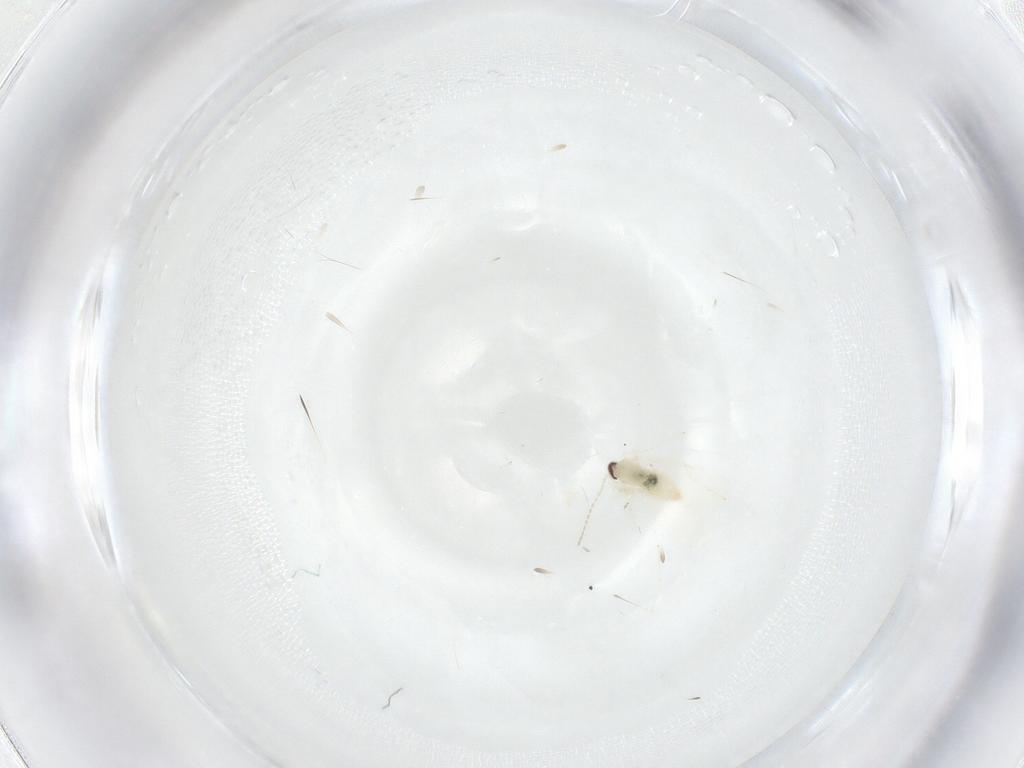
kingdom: Animalia
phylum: Arthropoda
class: Insecta
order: Diptera
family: Cecidomyiidae
